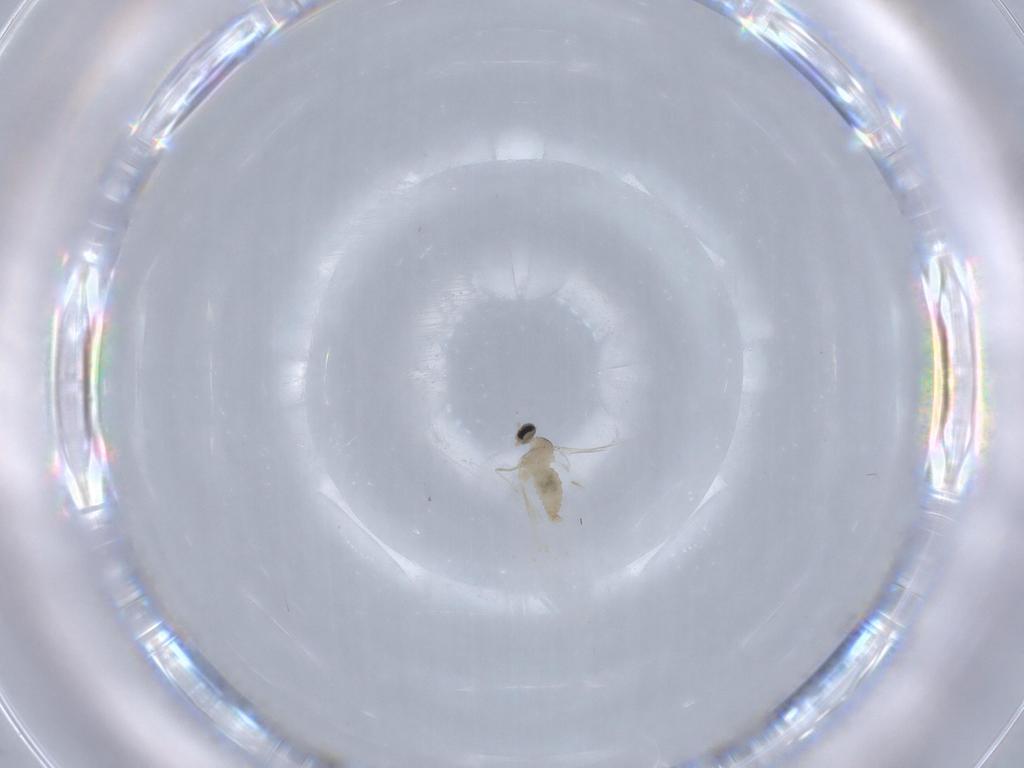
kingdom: Animalia
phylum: Arthropoda
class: Insecta
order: Diptera
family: Cecidomyiidae
